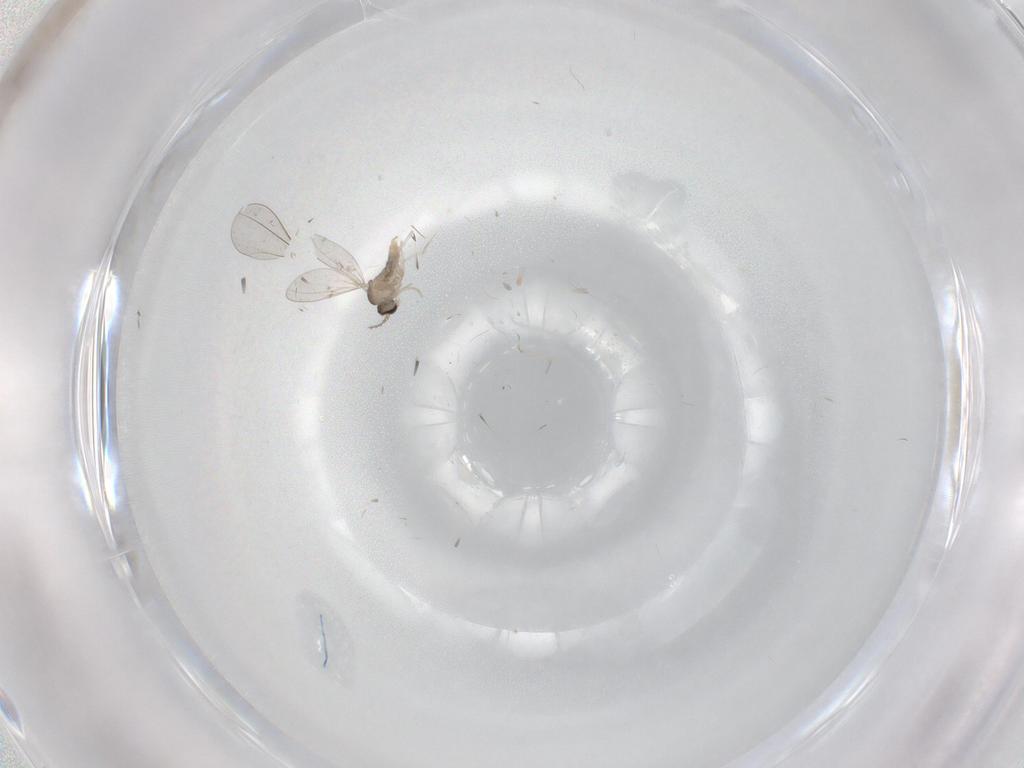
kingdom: Animalia
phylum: Arthropoda
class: Insecta
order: Diptera
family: Cecidomyiidae
